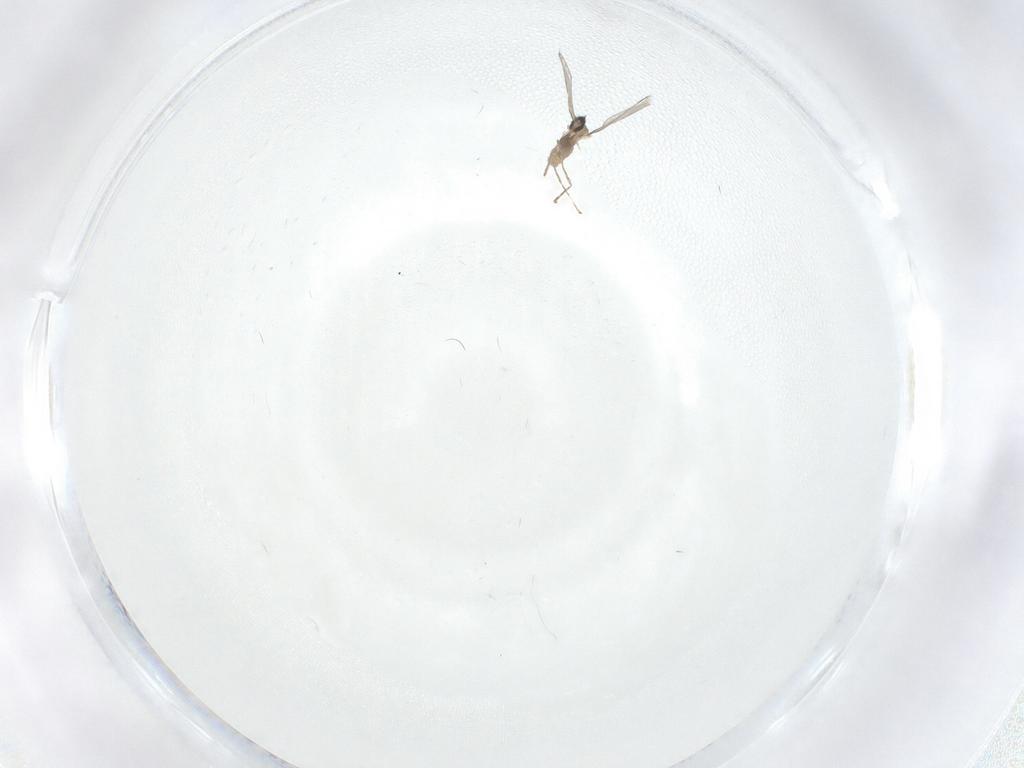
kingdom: Animalia
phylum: Arthropoda
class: Insecta
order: Diptera
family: Cecidomyiidae
